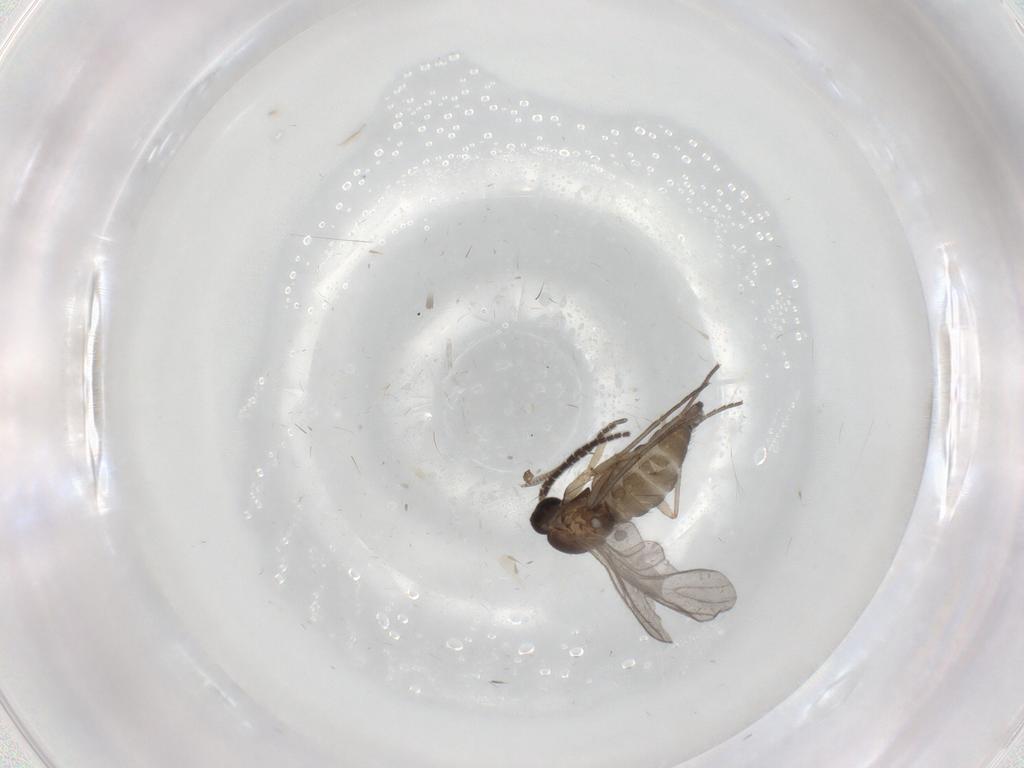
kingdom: Animalia
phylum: Arthropoda
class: Insecta
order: Diptera
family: Sciaridae
